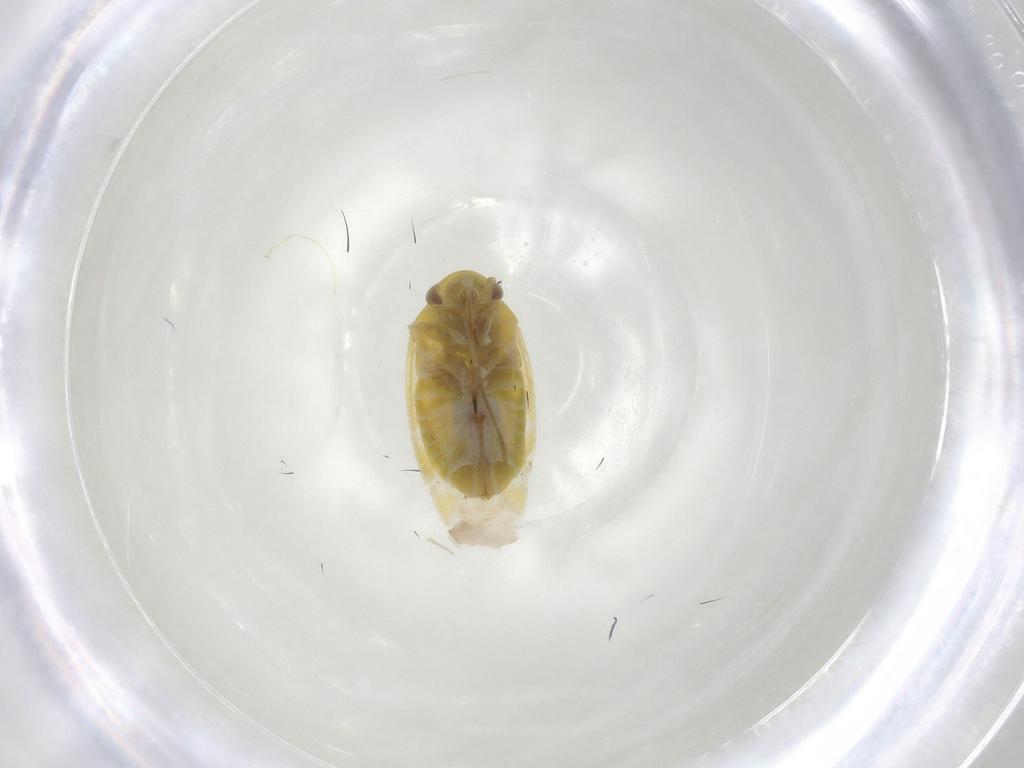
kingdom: Animalia
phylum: Arthropoda
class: Insecta
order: Hemiptera
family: Miridae
